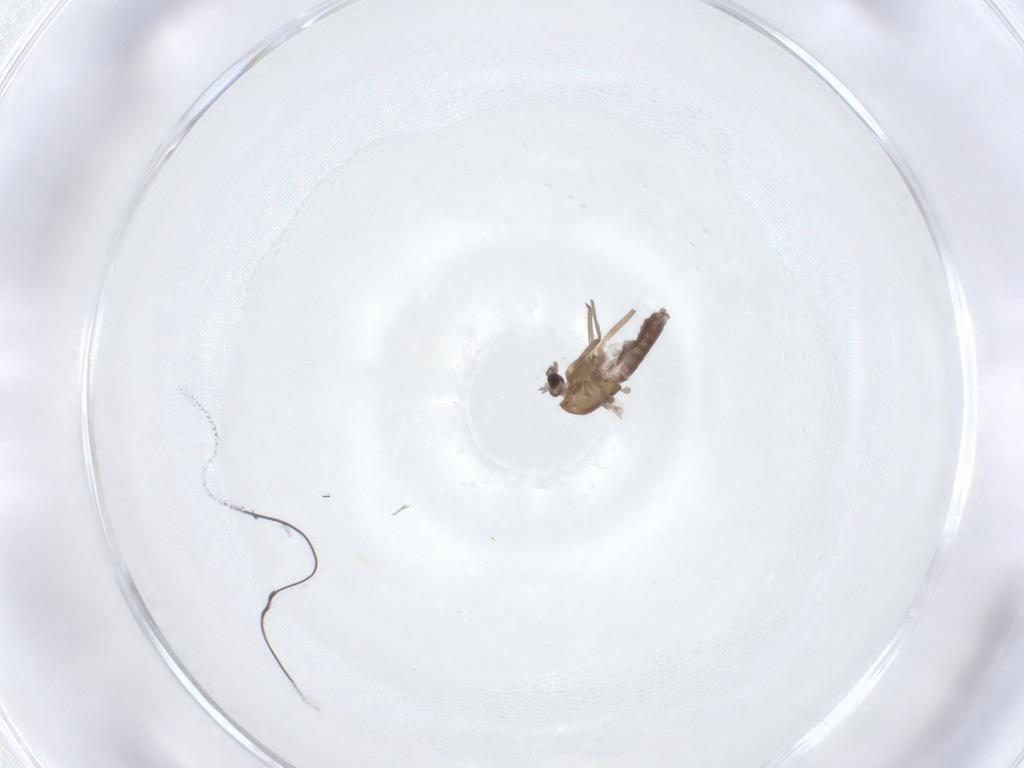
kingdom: Animalia
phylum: Arthropoda
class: Insecta
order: Diptera
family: Chironomidae
